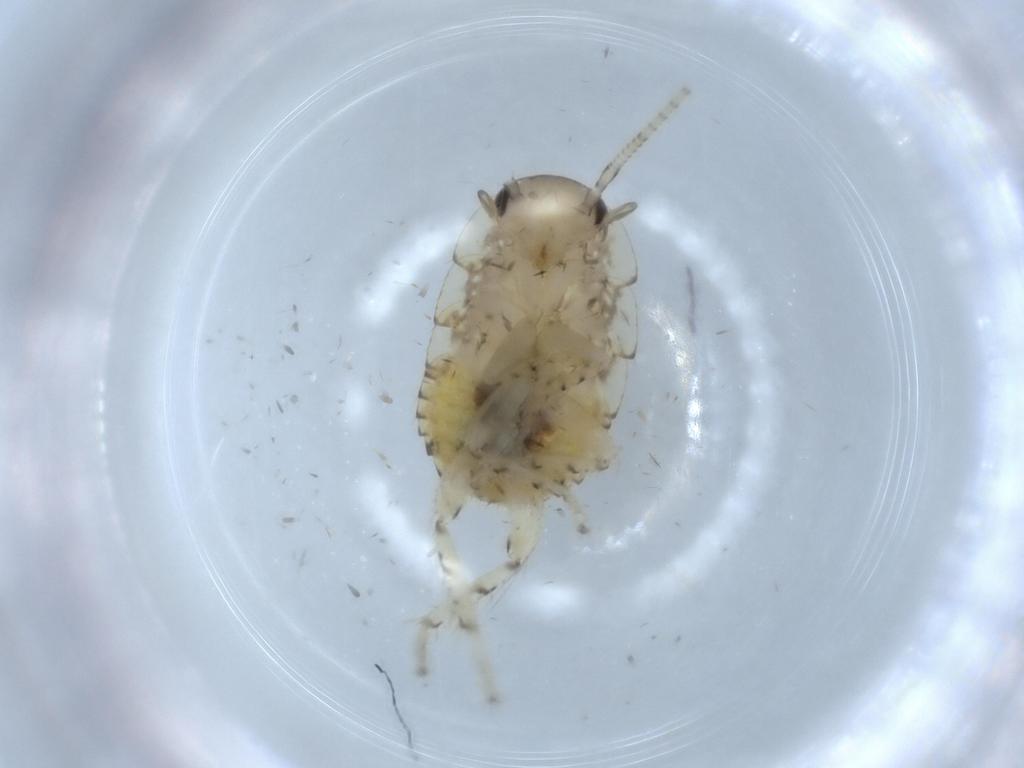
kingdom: Animalia
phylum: Arthropoda
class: Insecta
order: Blattodea
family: Ectobiidae
